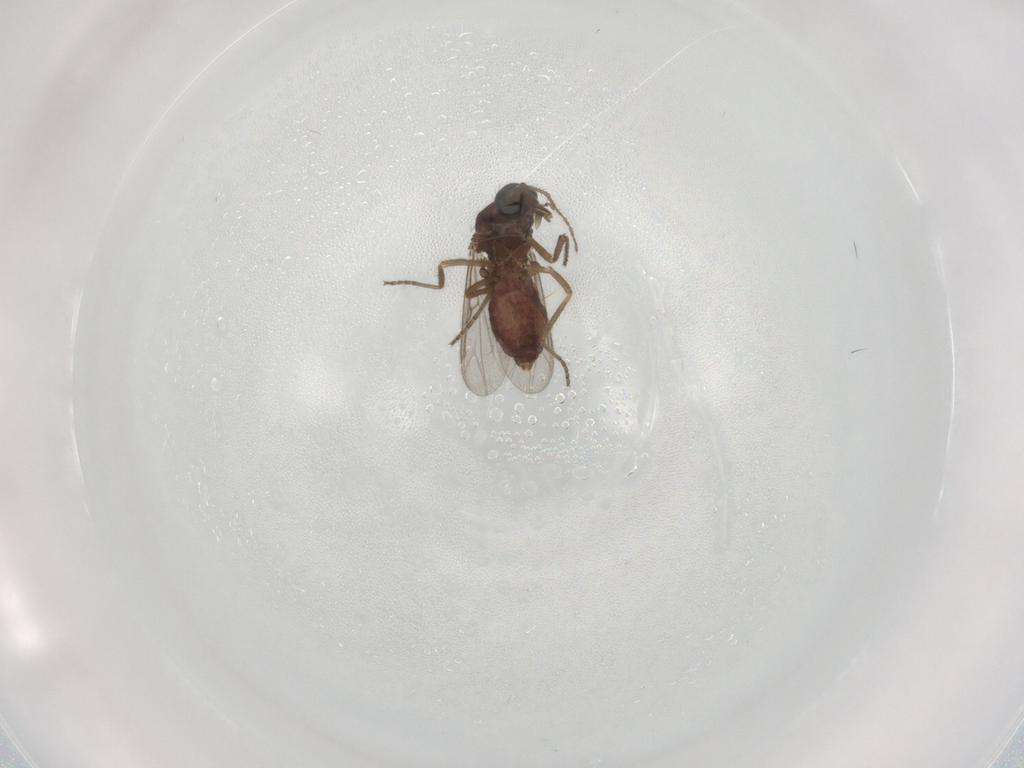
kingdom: Animalia
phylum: Arthropoda
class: Insecta
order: Diptera
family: Ceratopogonidae
